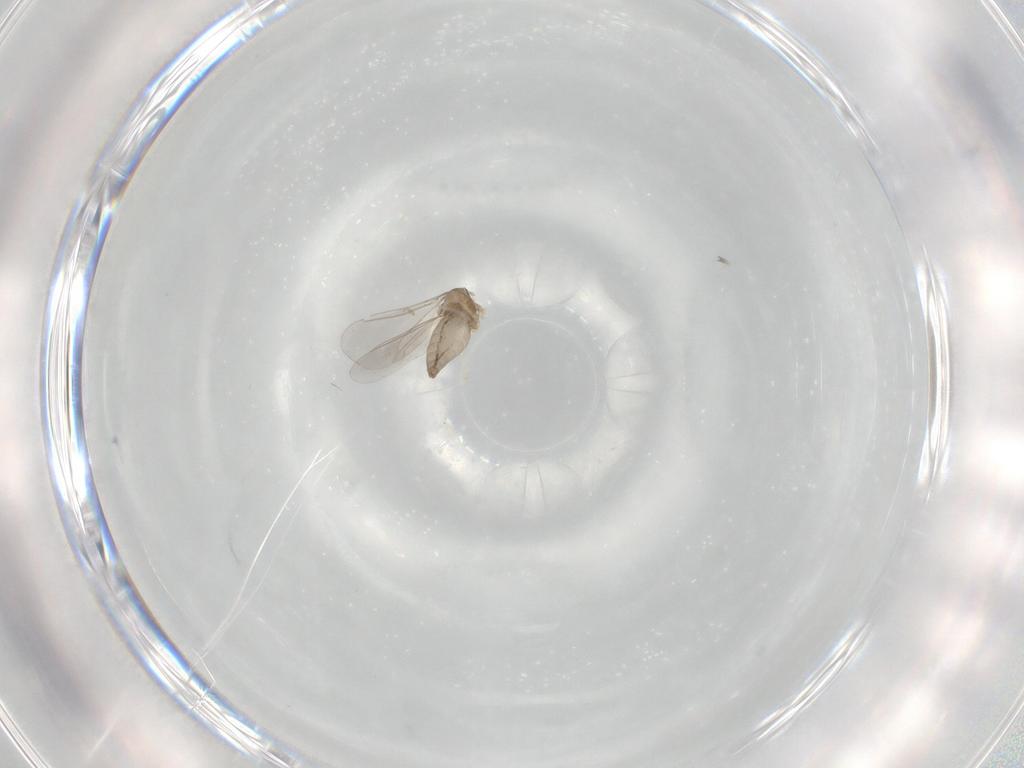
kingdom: Animalia
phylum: Arthropoda
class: Insecta
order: Diptera
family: Cecidomyiidae
